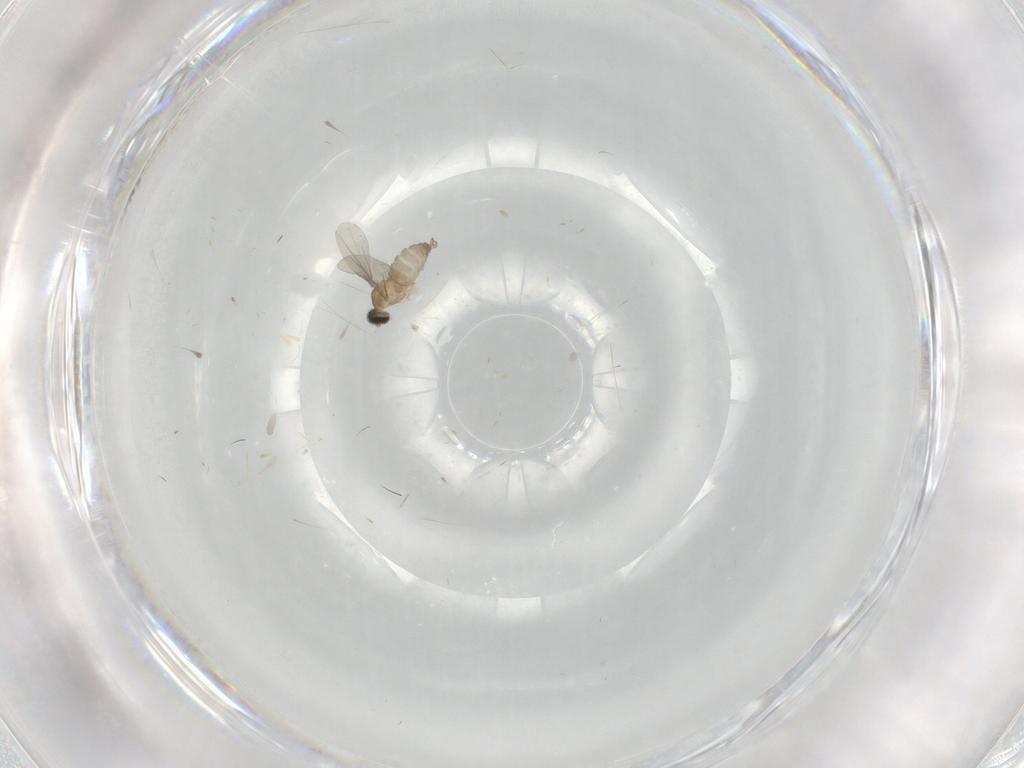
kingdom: Animalia
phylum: Arthropoda
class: Insecta
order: Diptera
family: Cecidomyiidae
